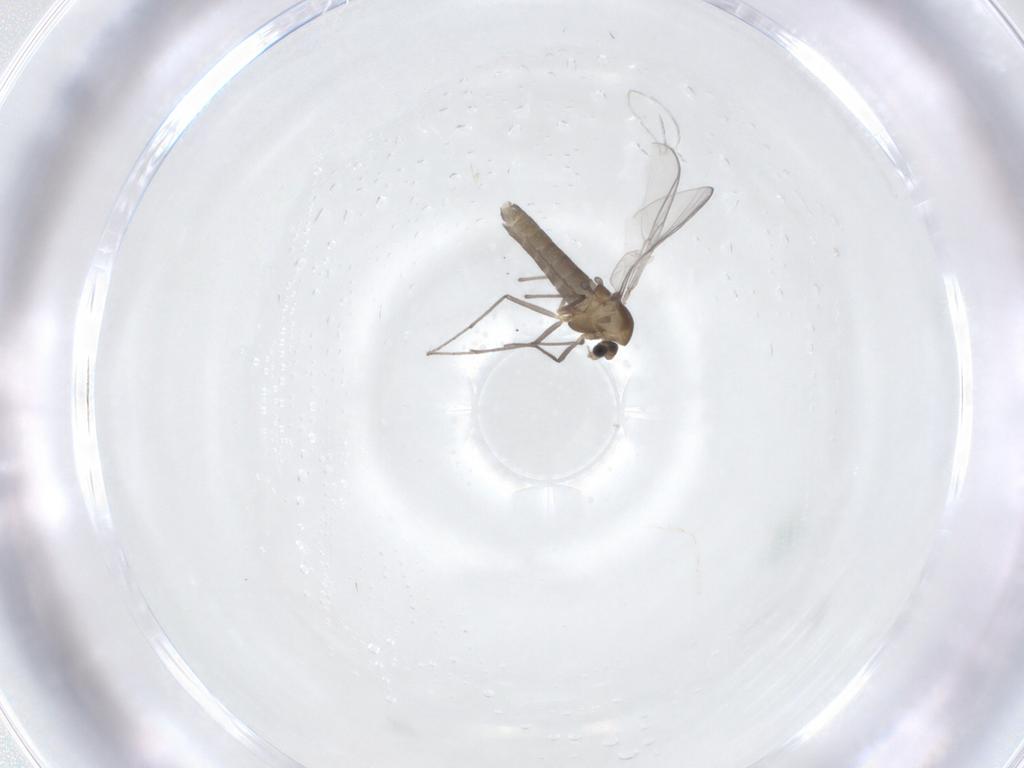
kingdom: Animalia
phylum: Arthropoda
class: Insecta
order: Diptera
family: Chironomidae
